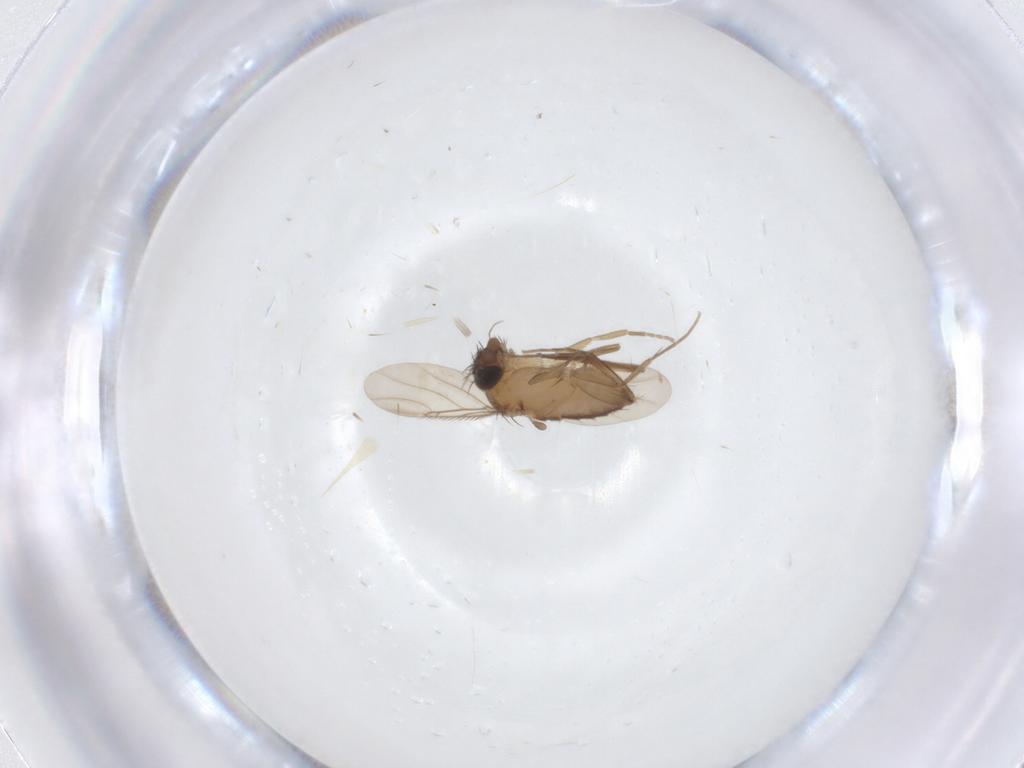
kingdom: Animalia
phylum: Arthropoda
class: Insecta
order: Diptera
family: Phoridae
